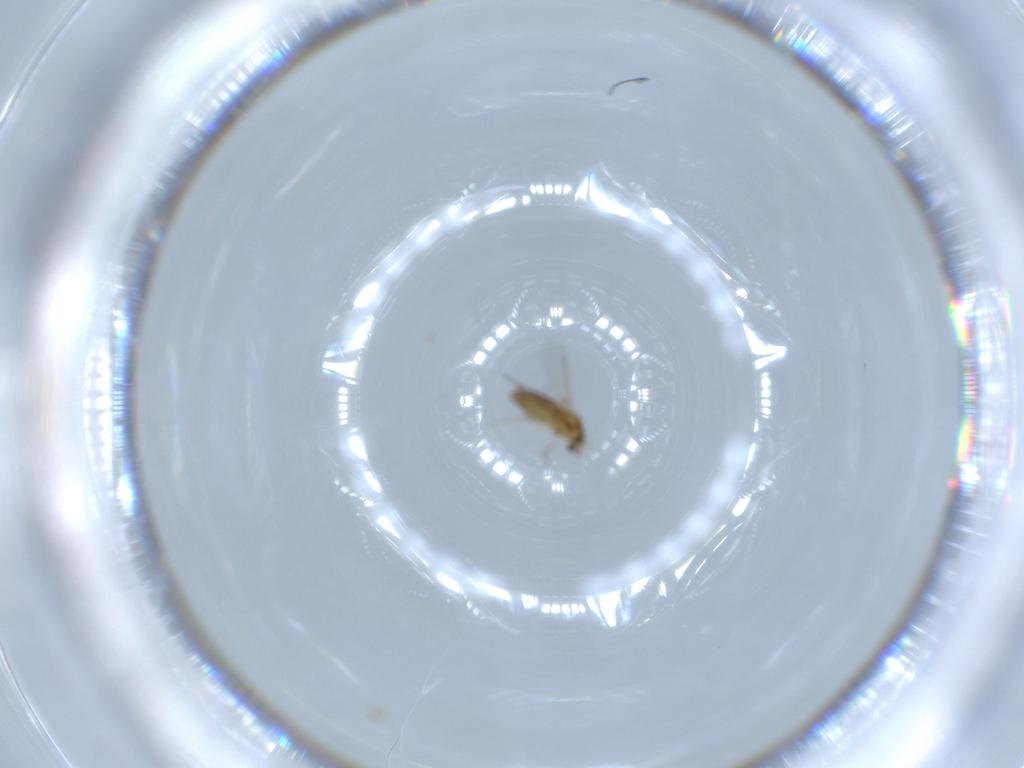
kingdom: Animalia
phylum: Arthropoda
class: Insecta
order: Diptera
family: Chironomidae
